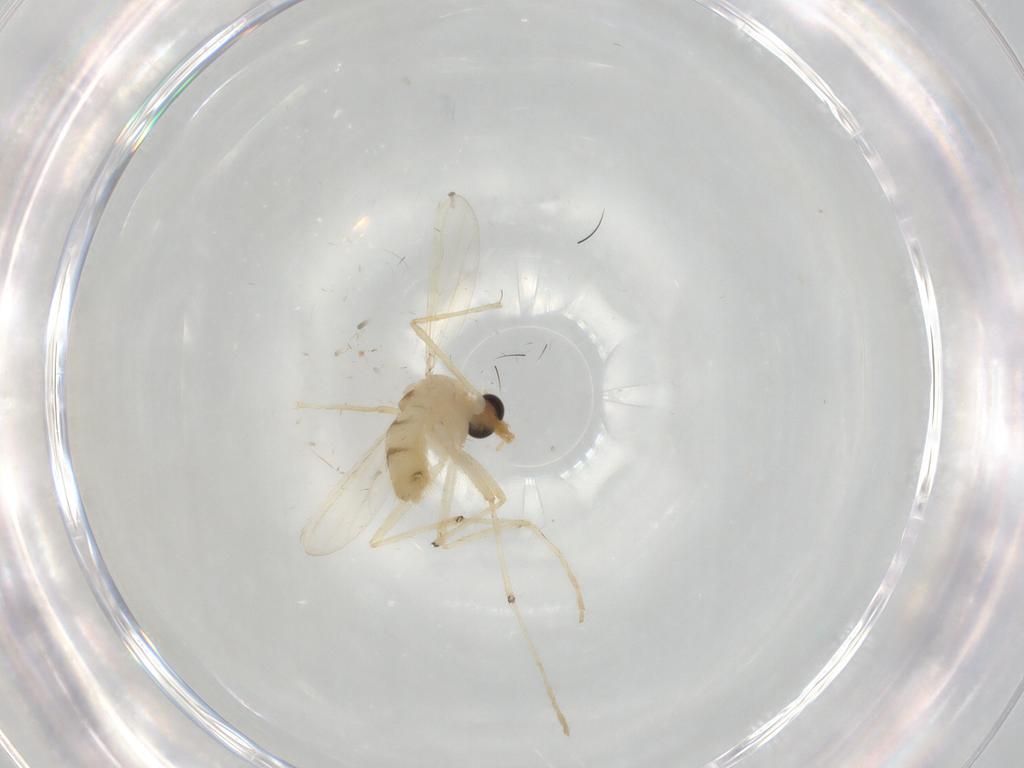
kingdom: Animalia
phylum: Arthropoda
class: Insecta
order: Diptera
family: Chironomidae
